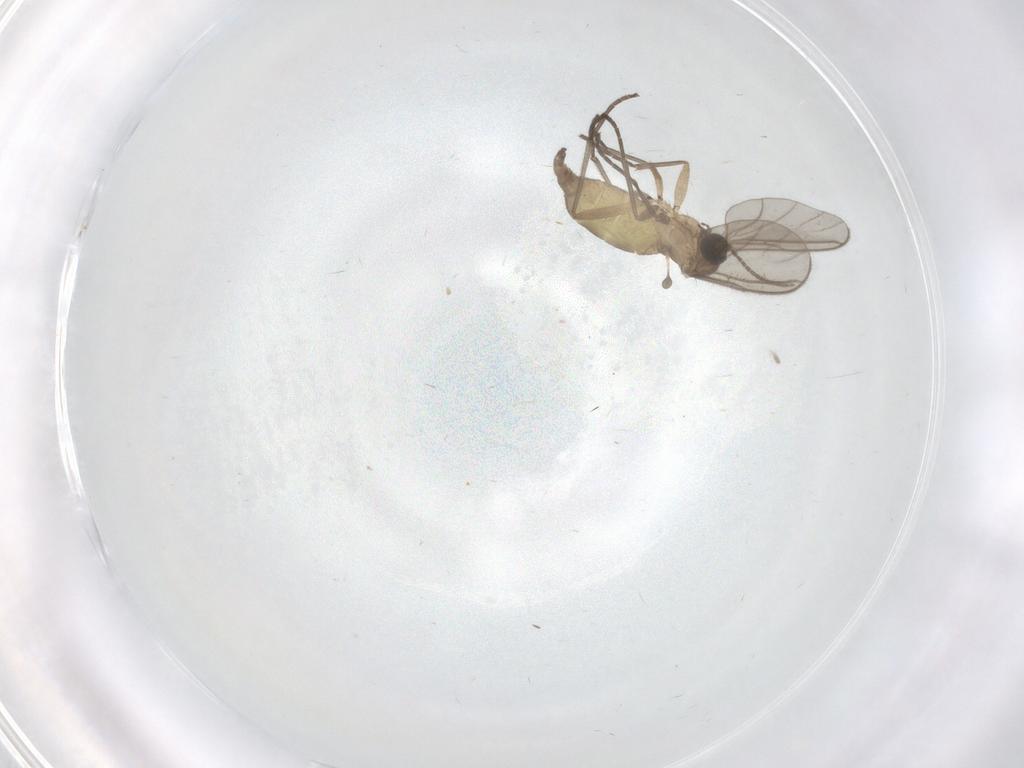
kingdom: Animalia
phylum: Arthropoda
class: Insecta
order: Diptera
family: Sciaridae
